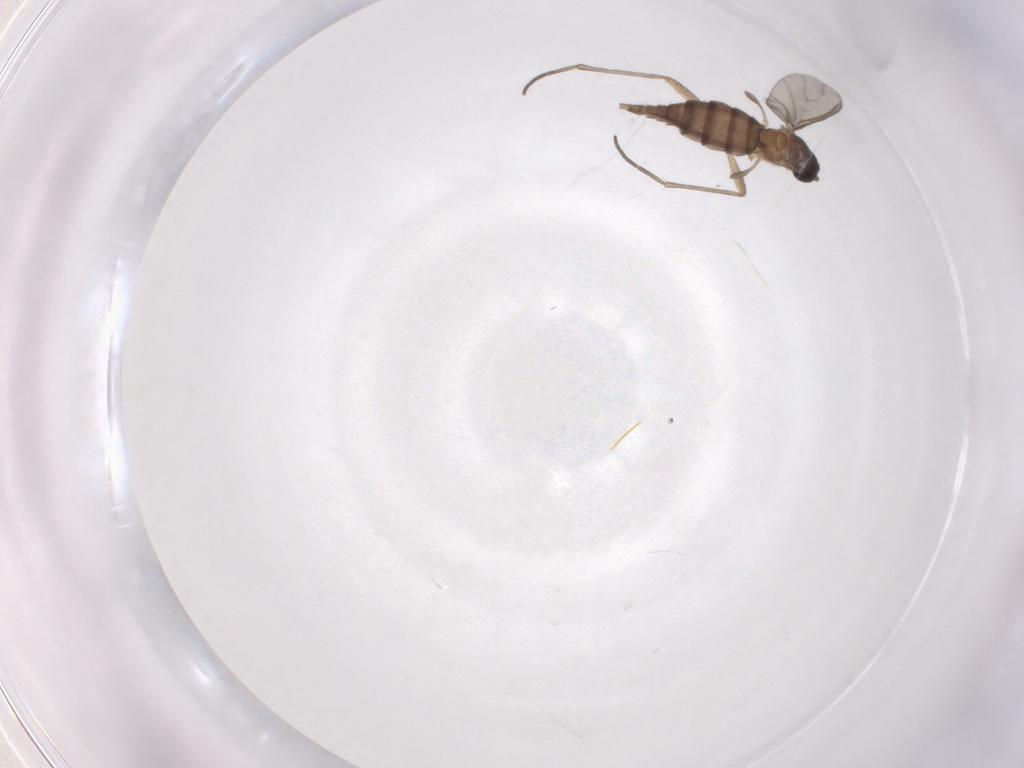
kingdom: Animalia
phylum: Arthropoda
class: Insecta
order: Diptera
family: Sciaridae
